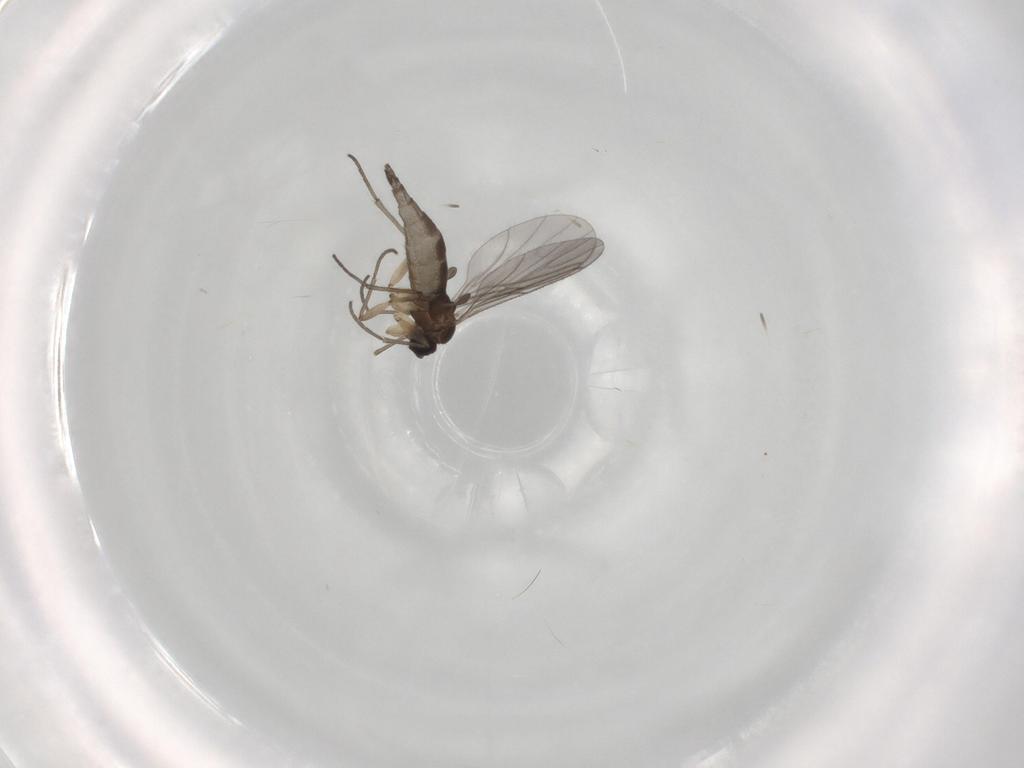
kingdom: Animalia
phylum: Arthropoda
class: Insecta
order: Diptera
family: Sciaridae
